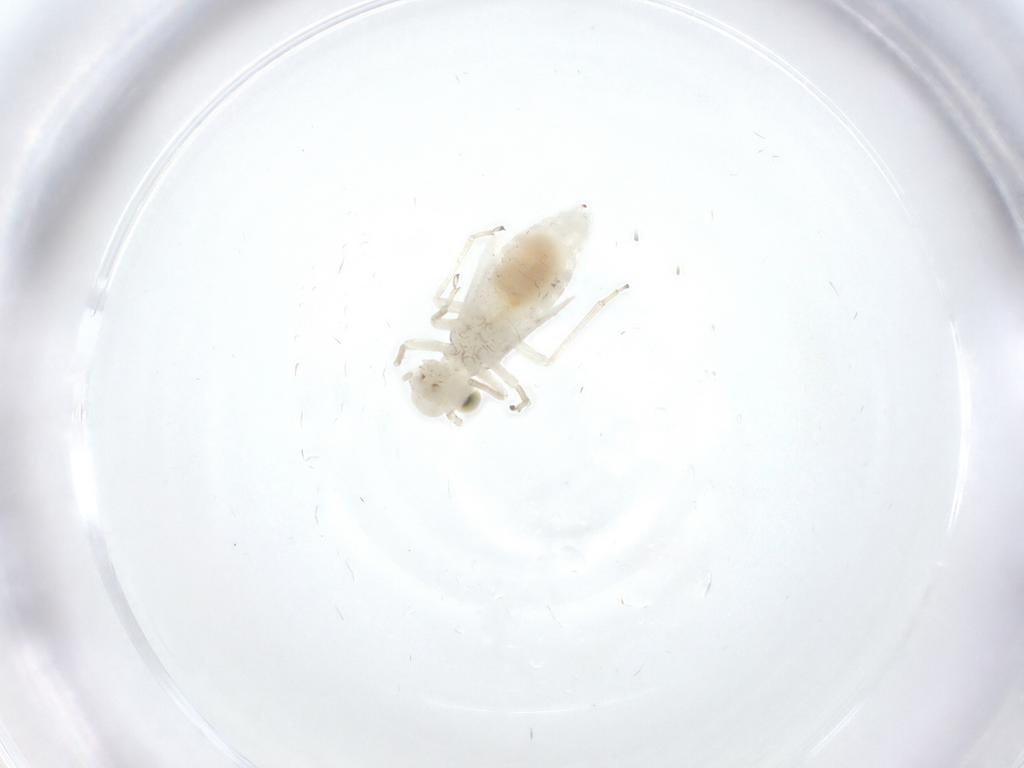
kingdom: Animalia
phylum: Arthropoda
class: Insecta
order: Psocodea
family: Caeciliusidae
